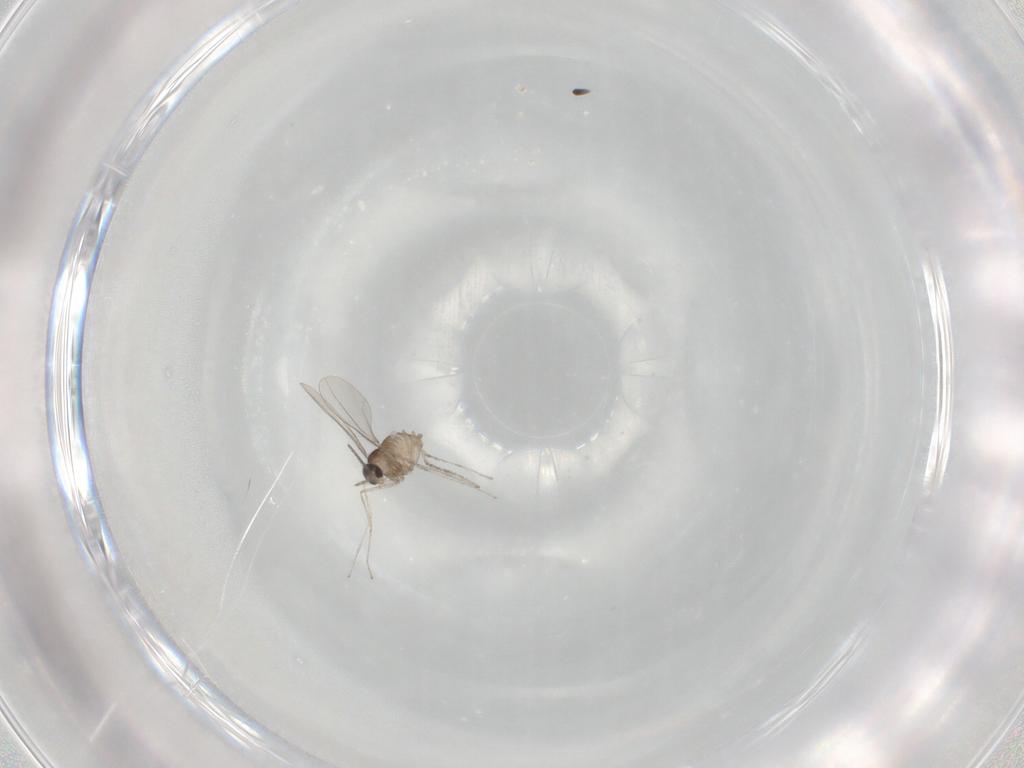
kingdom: Animalia
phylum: Arthropoda
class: Insecta
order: Diptera
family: Cecidomyiidae
